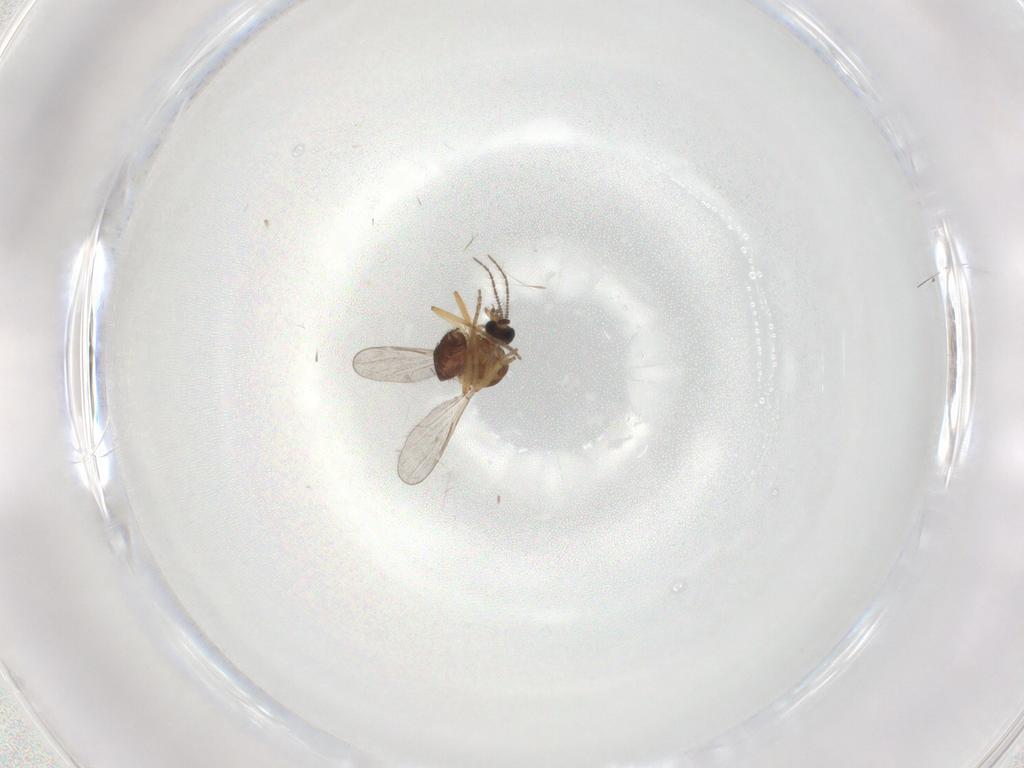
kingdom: Animalia
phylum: Arthropoda
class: Insecta
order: Diptera
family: Ceratopogonidae
